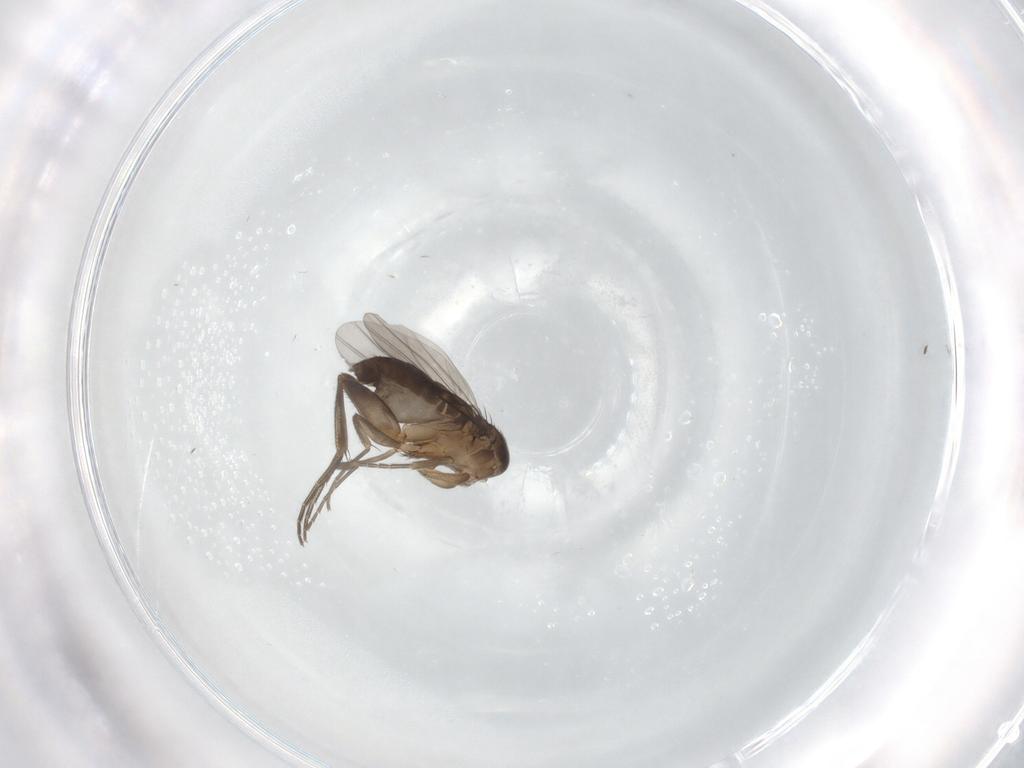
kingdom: Animalia
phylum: Arthropoda
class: Insecta
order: Diptera
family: Phoridae
